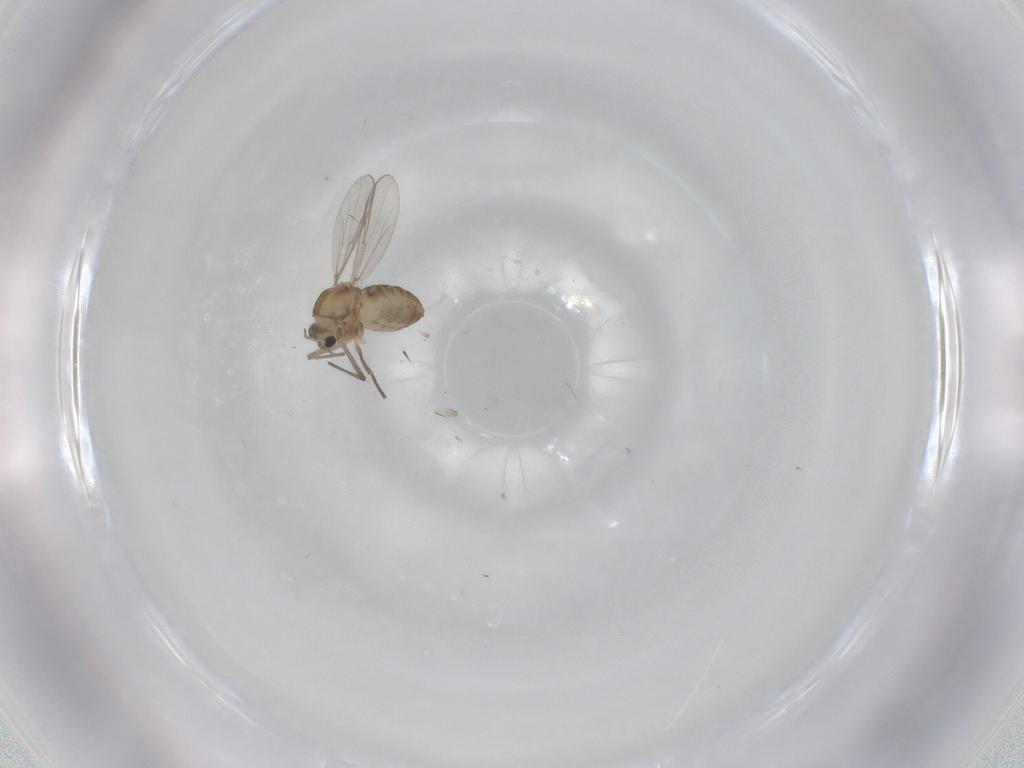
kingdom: Animalia
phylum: Arthropoda
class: Insecta
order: Diptera
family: Chironomidae
